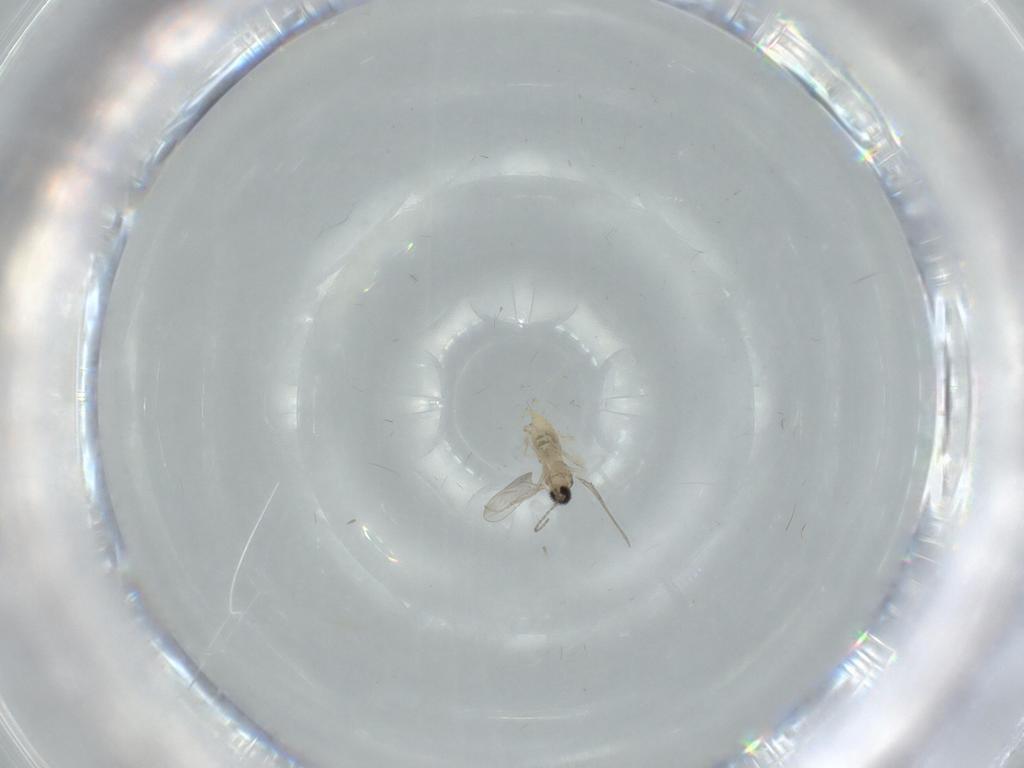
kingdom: Animalia
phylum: Arthropoda
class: Insecta
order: Diptera
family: Cecidomyiidae
